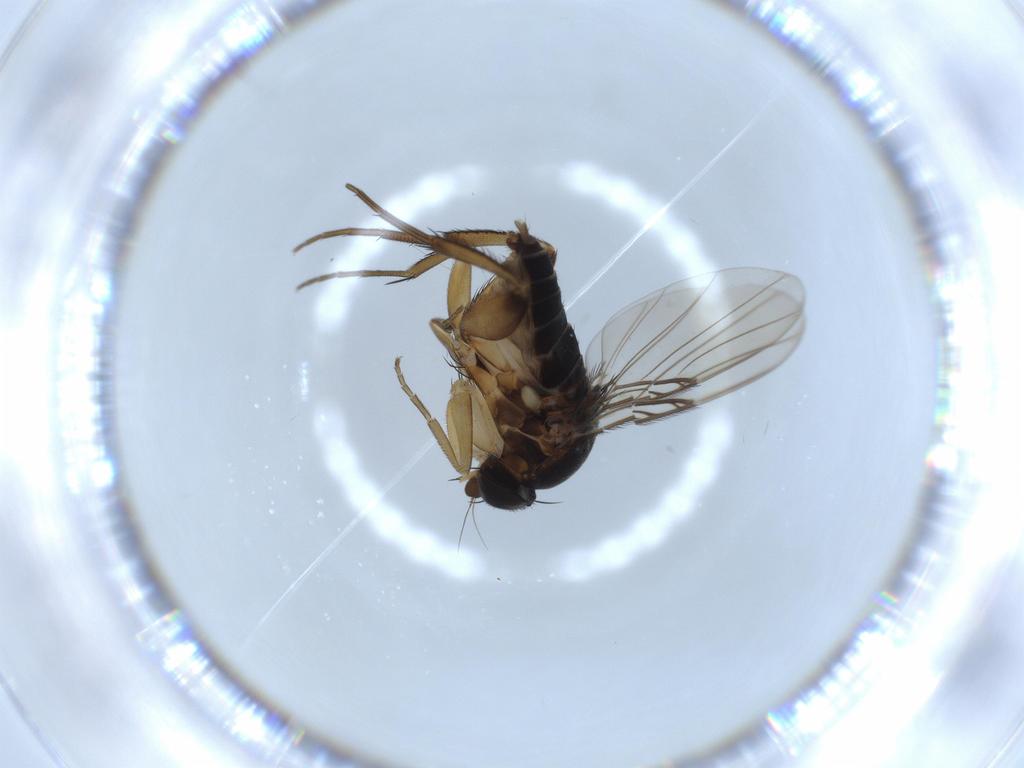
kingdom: Animalia
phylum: Arthropoda
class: Insecta
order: Diptera
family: Phoridae
